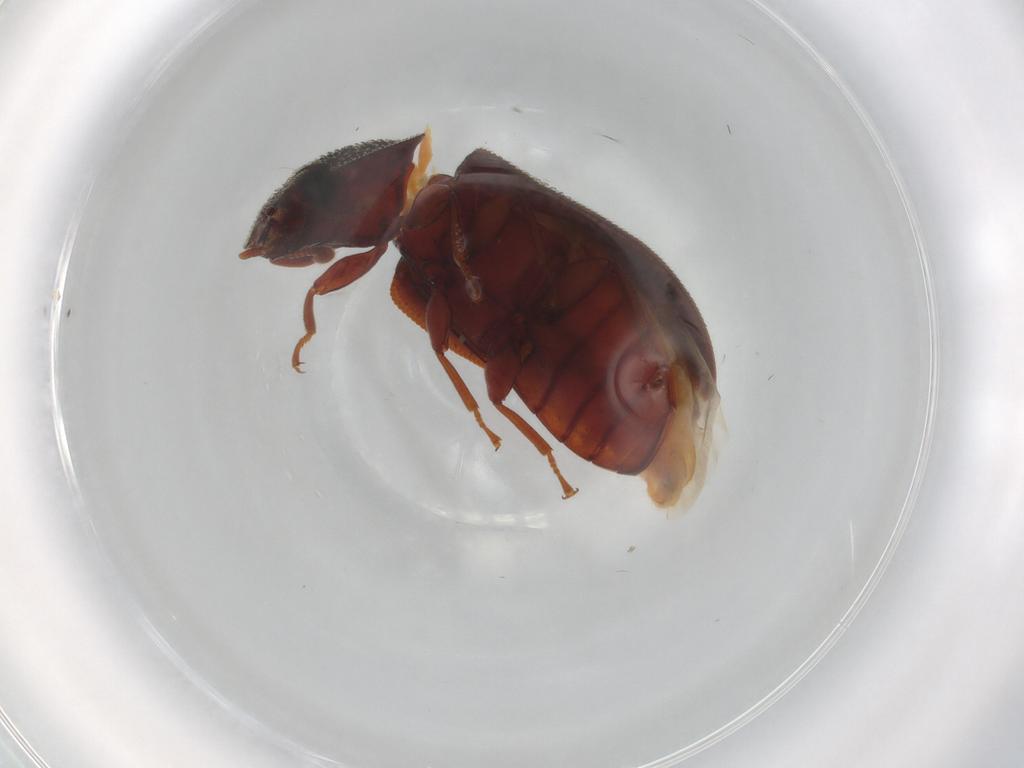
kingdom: Animalia
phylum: Arthropoda
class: Insecta
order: Coleoptera
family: Zopheridae
